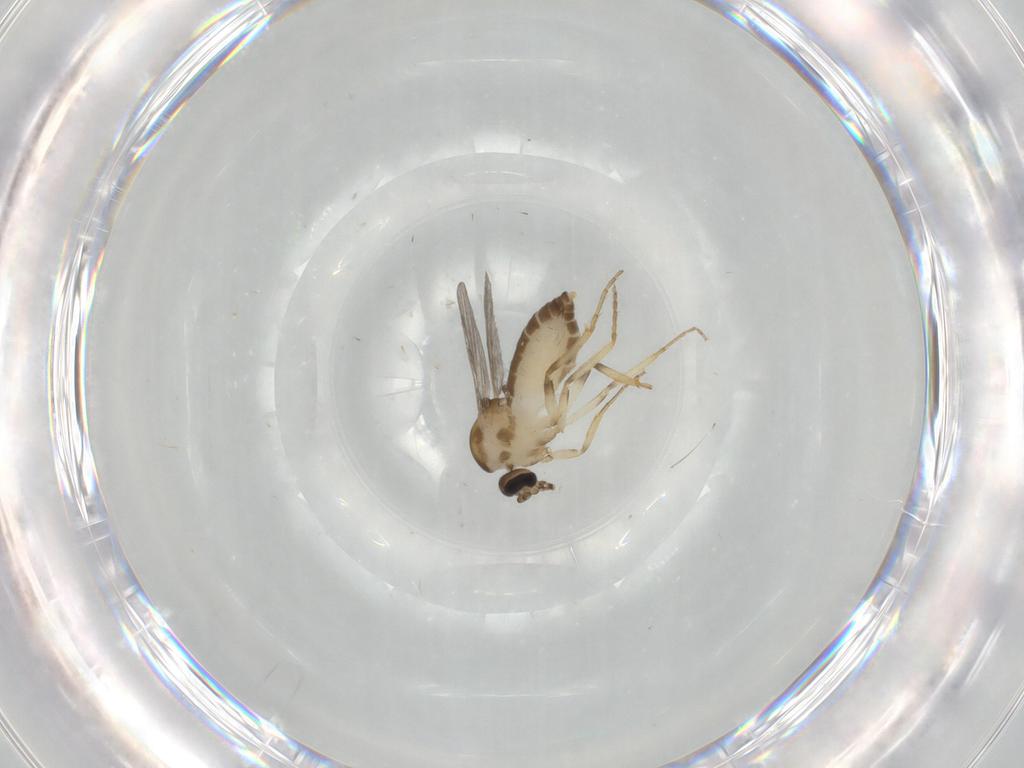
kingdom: Animalia
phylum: Arthropoda
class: Insecta
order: Diptera
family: Ceratopogonidae
